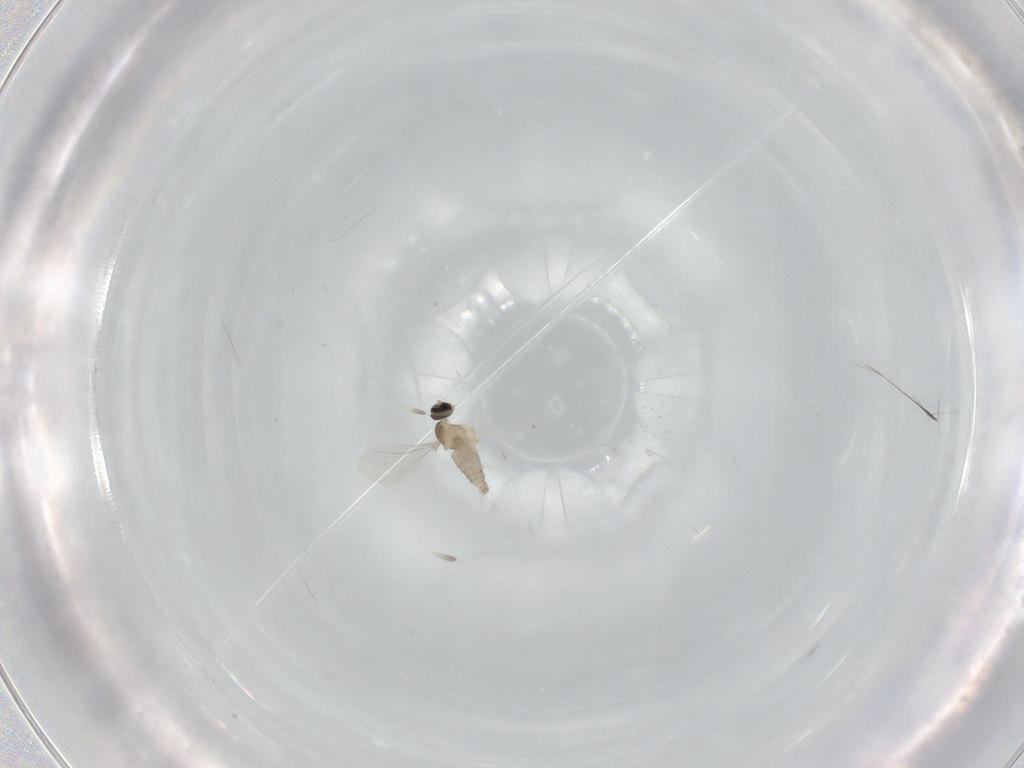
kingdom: Animalia
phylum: Arthropoda
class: Insecta
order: Diptera
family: Cecidomyiidae
